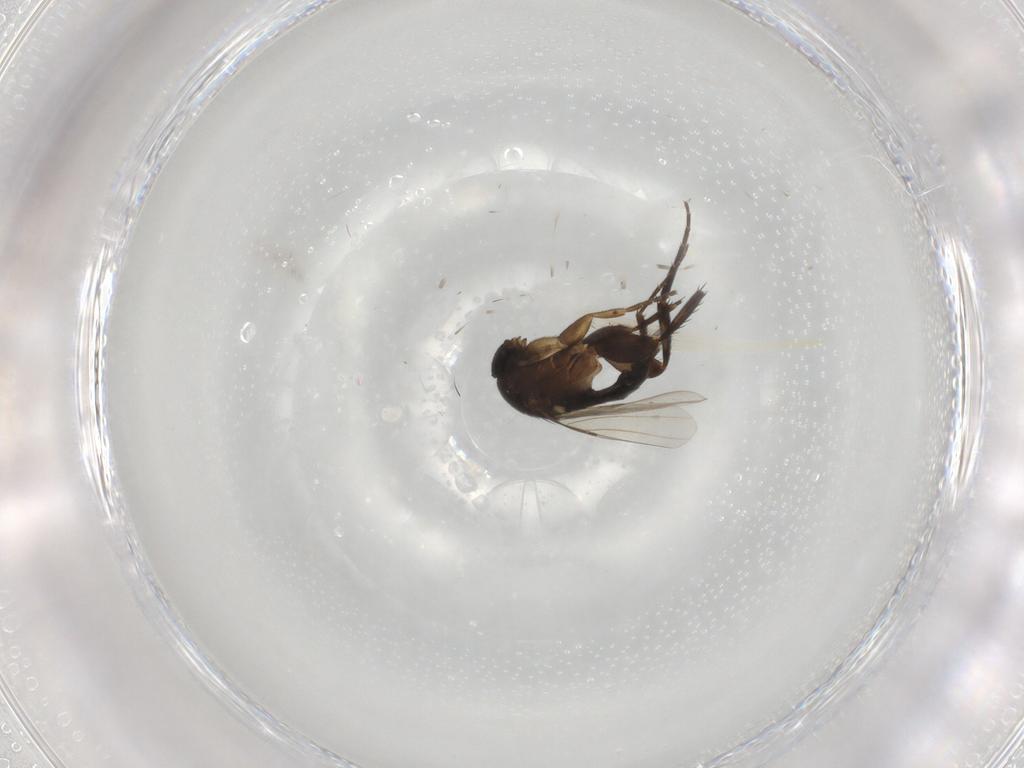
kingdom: Animalia
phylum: Arthropoda
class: Insecta
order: Diptera
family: Phoridae
